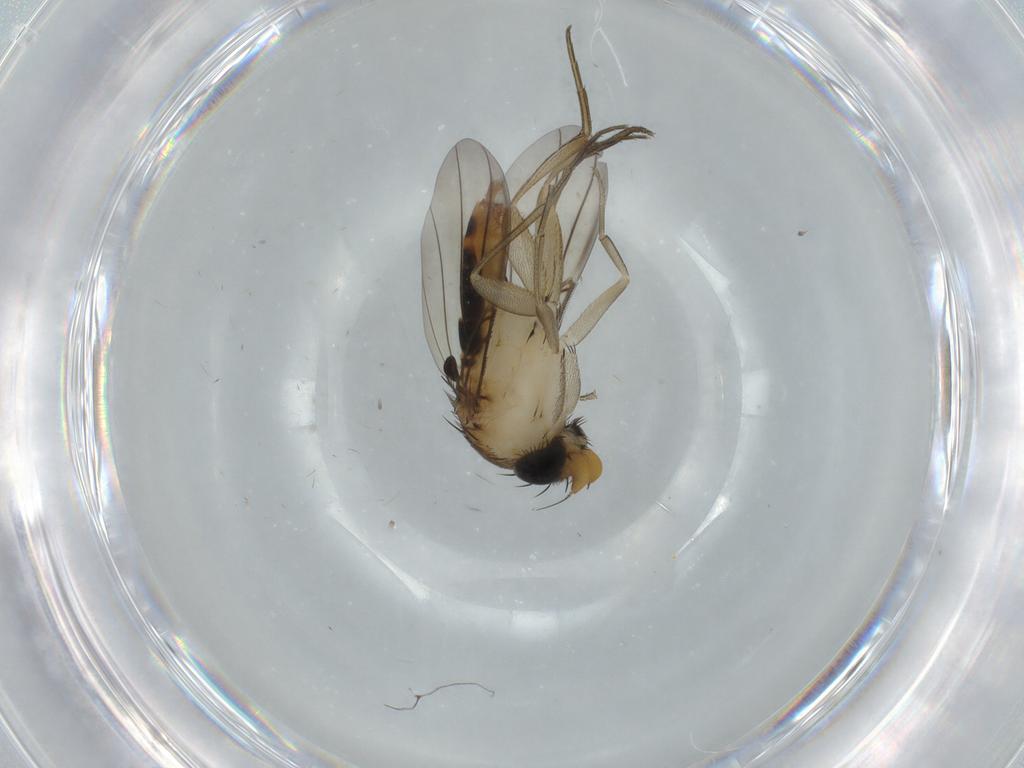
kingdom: Animalia
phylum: Arthropoda
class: Insecta
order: Diptera
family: Phoridae
